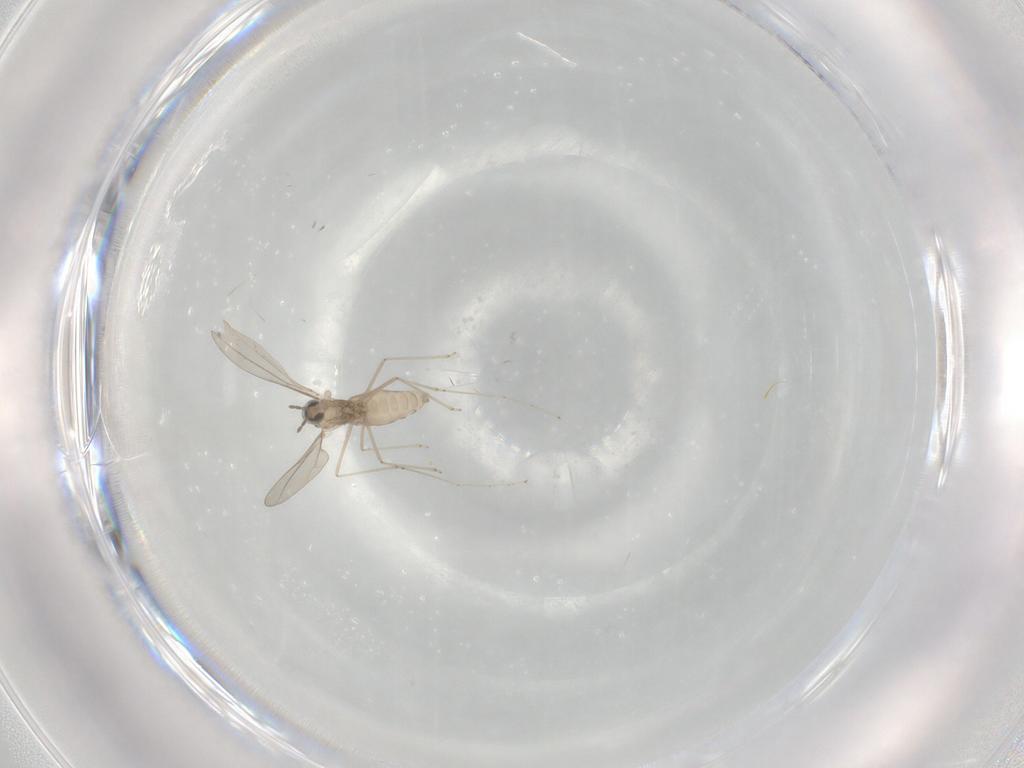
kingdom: Animalia
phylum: Arthropoda
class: Insecta
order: Diptera
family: Cecidomyiidae
